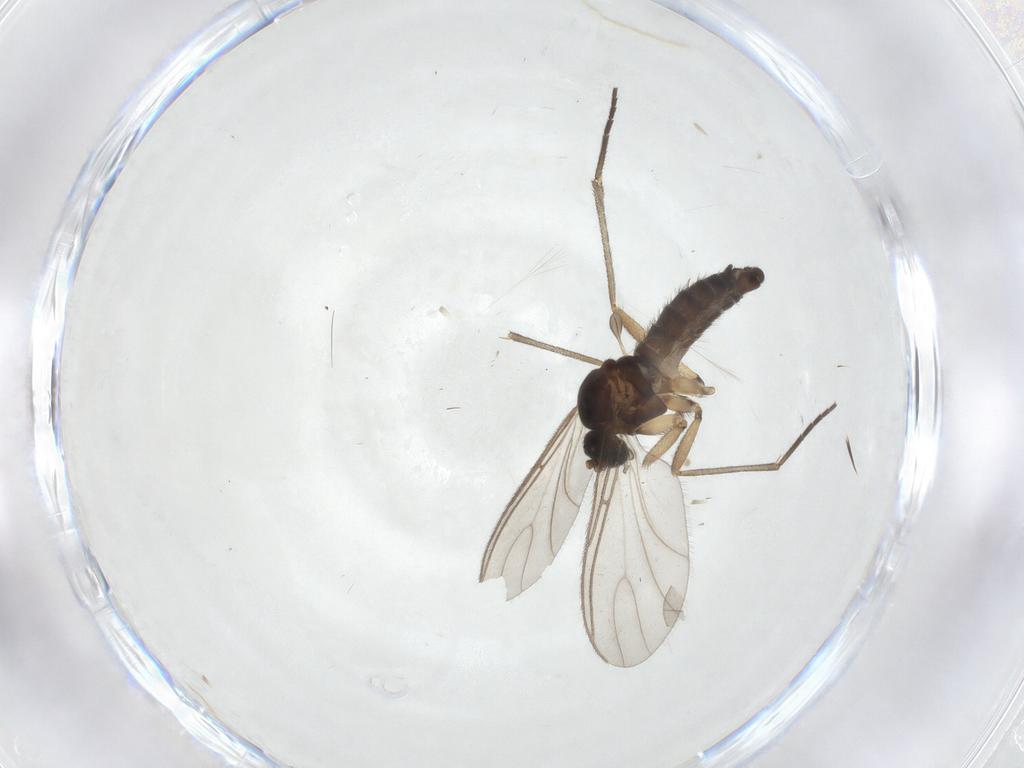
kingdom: Animalia
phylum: Arthropoda
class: Insecta
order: Diptera
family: Sciaridae
